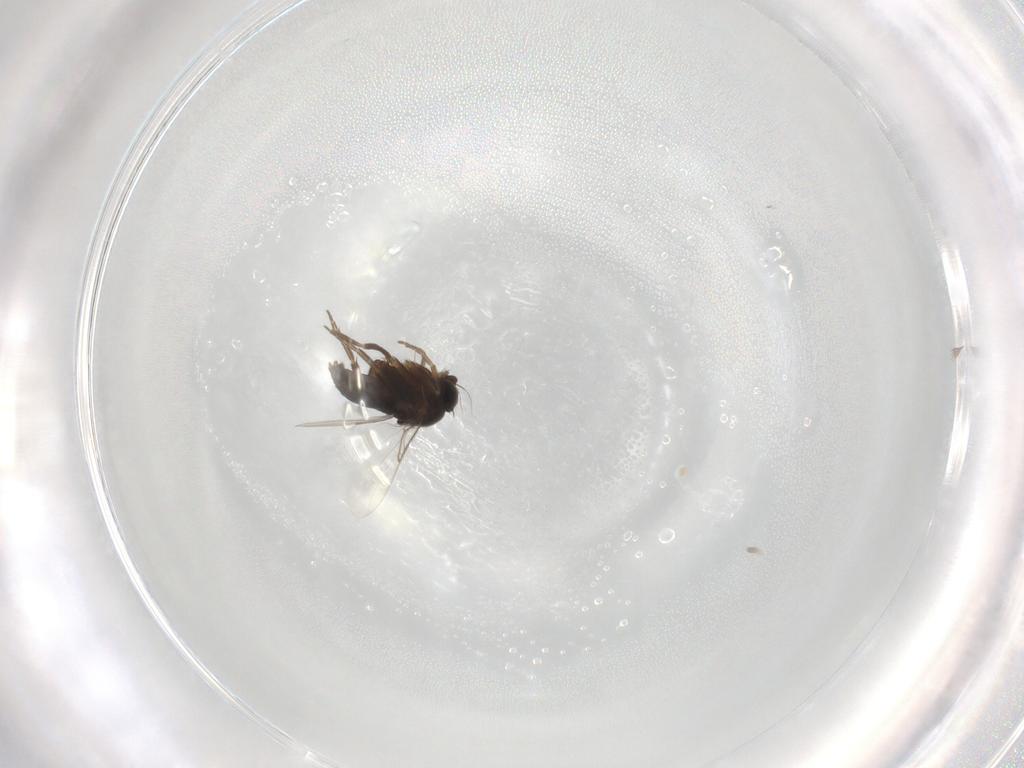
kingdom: Animalia
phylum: Arthropoda
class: Insecta
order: Diptera
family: Phoridae
